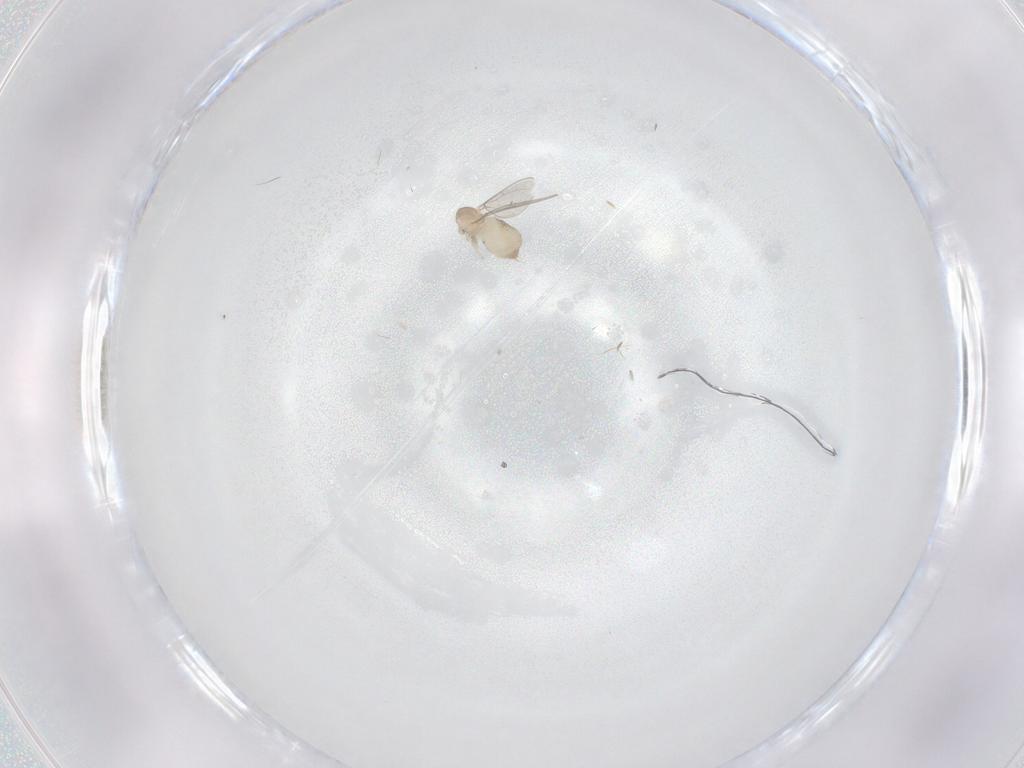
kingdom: Animalia
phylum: Arthropoda
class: Insecta
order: Diptera
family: Cecidomyiidae
